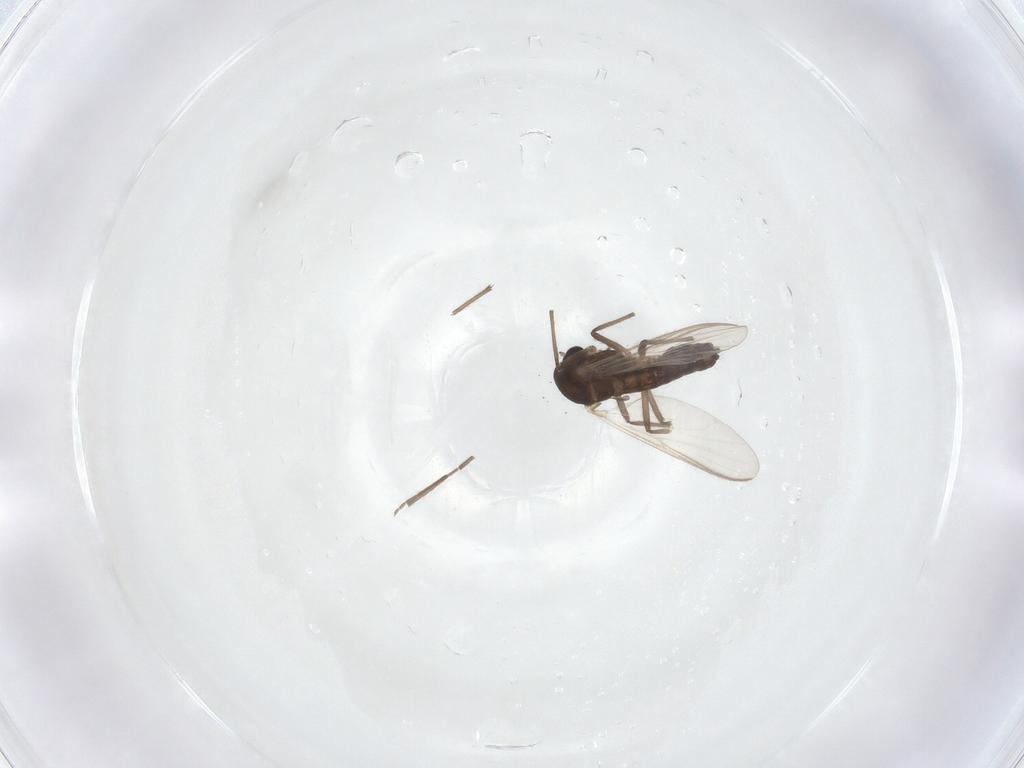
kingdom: Animalia
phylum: Arthropoda
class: Insecta
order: Diptera
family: Chironomidae
